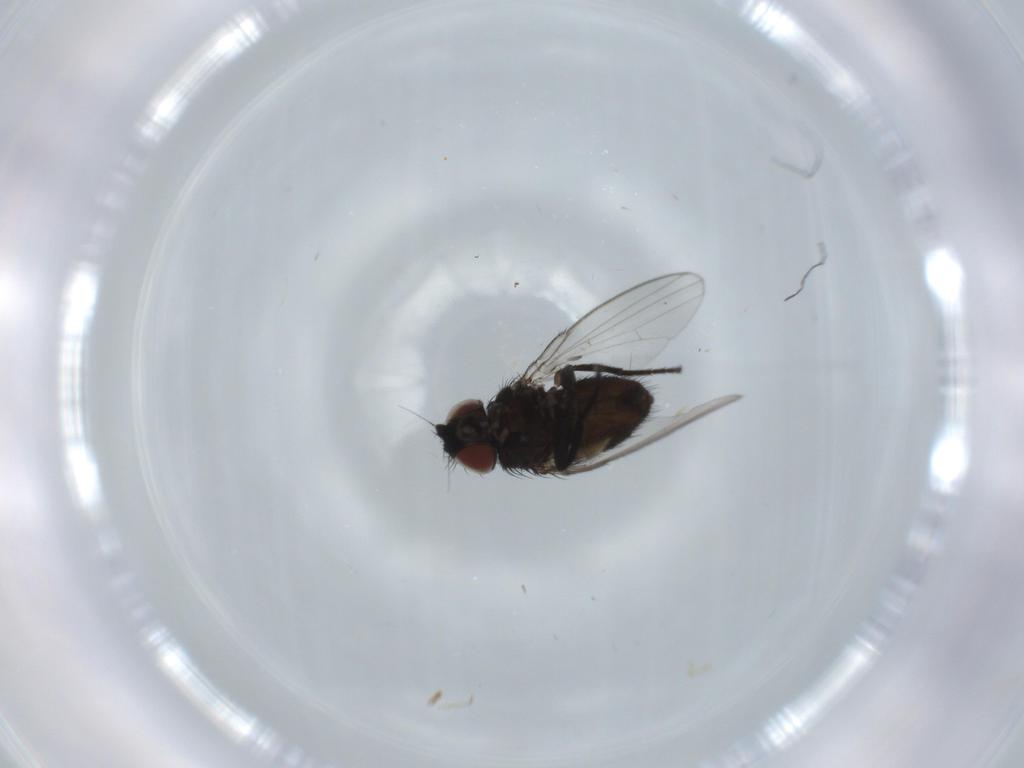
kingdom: Animalia
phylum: Arthropoda
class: Insecta
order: Diptera
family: Ceratopogonidae
